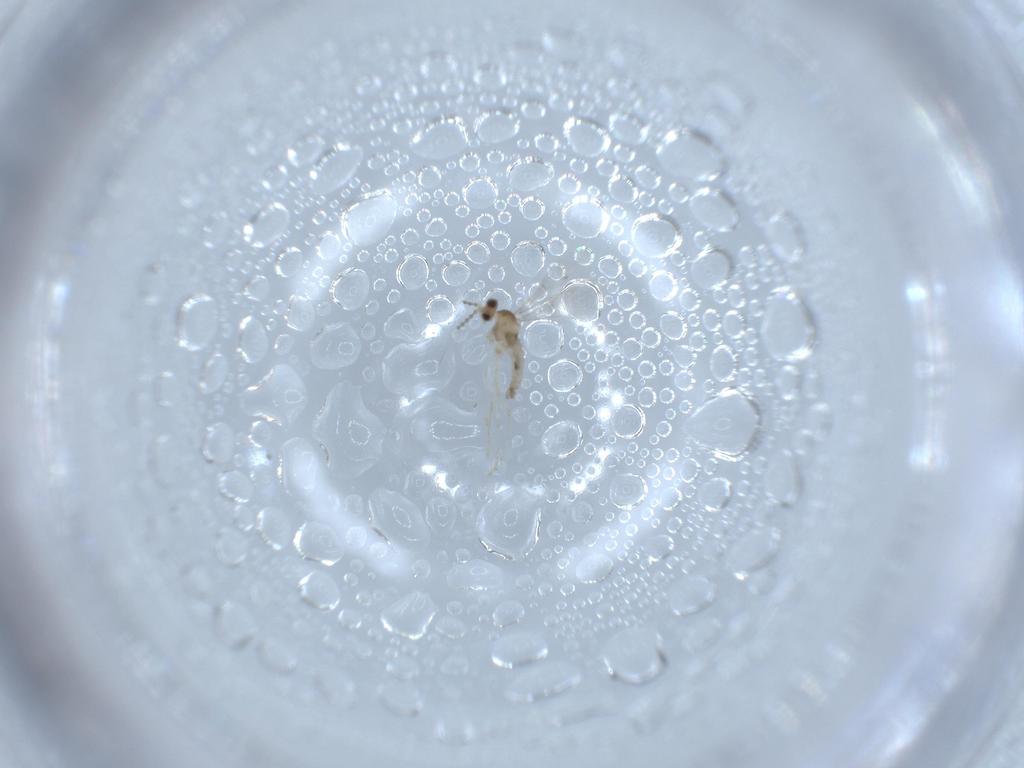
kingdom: Animalia
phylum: Arthropoda
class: Insecta
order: Diptera
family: Cecidomyiidae
